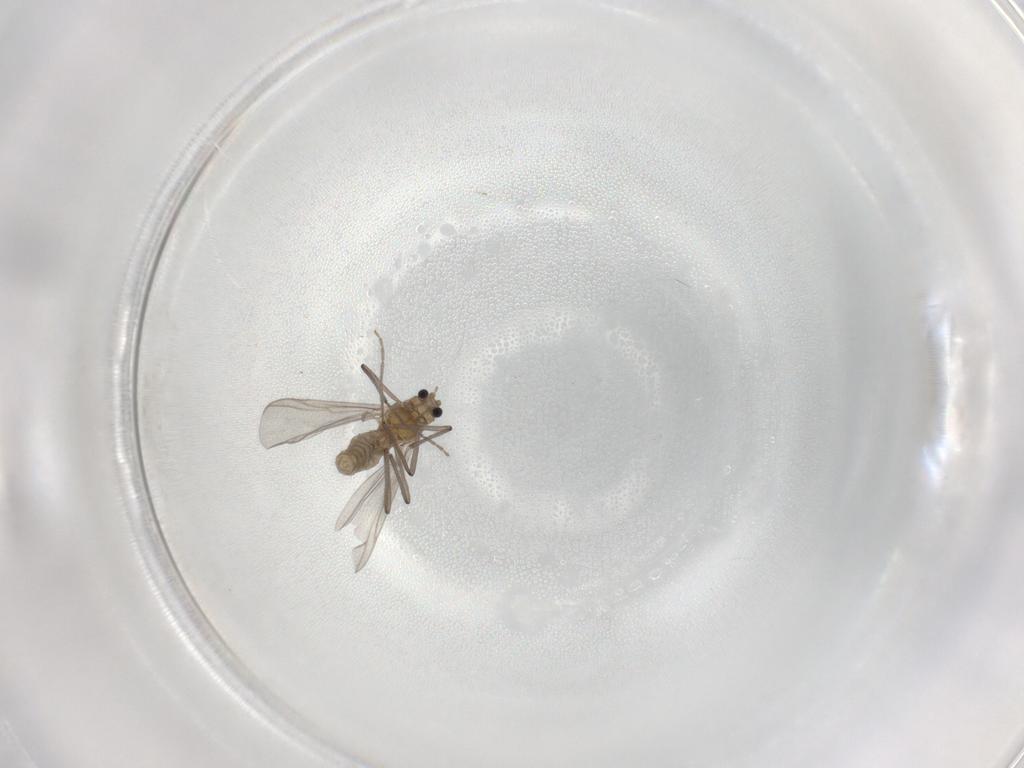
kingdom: Animalia
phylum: Arthropoda
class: Insecta
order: Diptera
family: Chironomidae
